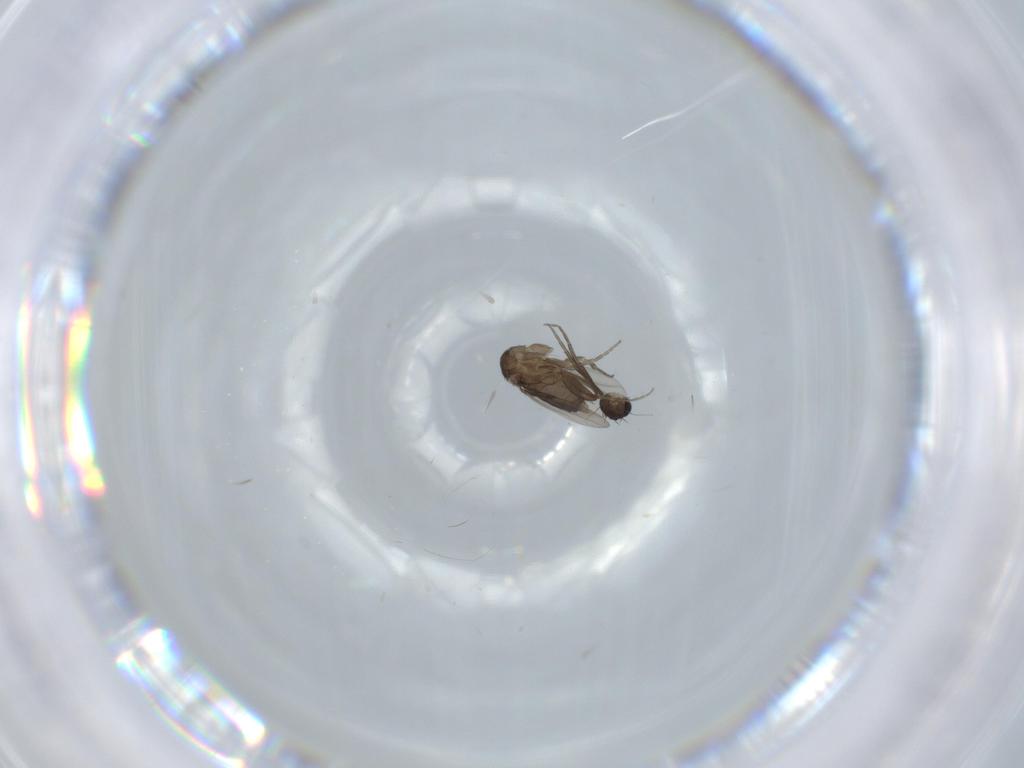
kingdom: Animalia
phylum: Arthropoda
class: Insecta
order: Diptera
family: Phoridae
